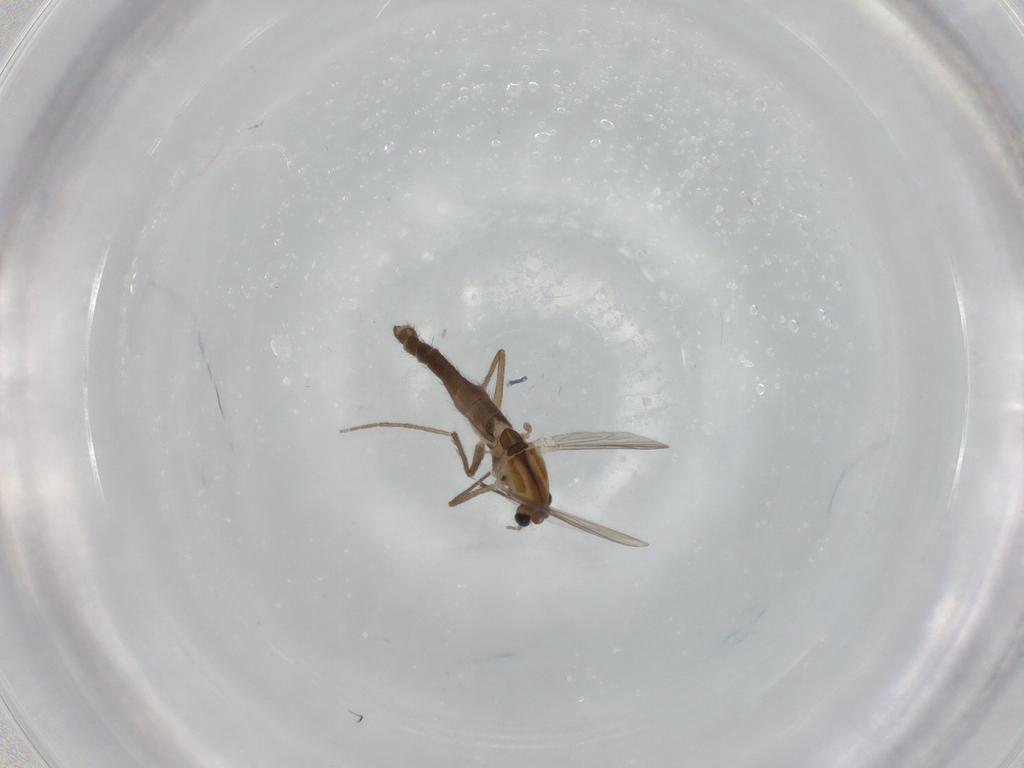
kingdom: Animalia
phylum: Arthropoda
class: Insecta
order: Diptera
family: Chironomidae
